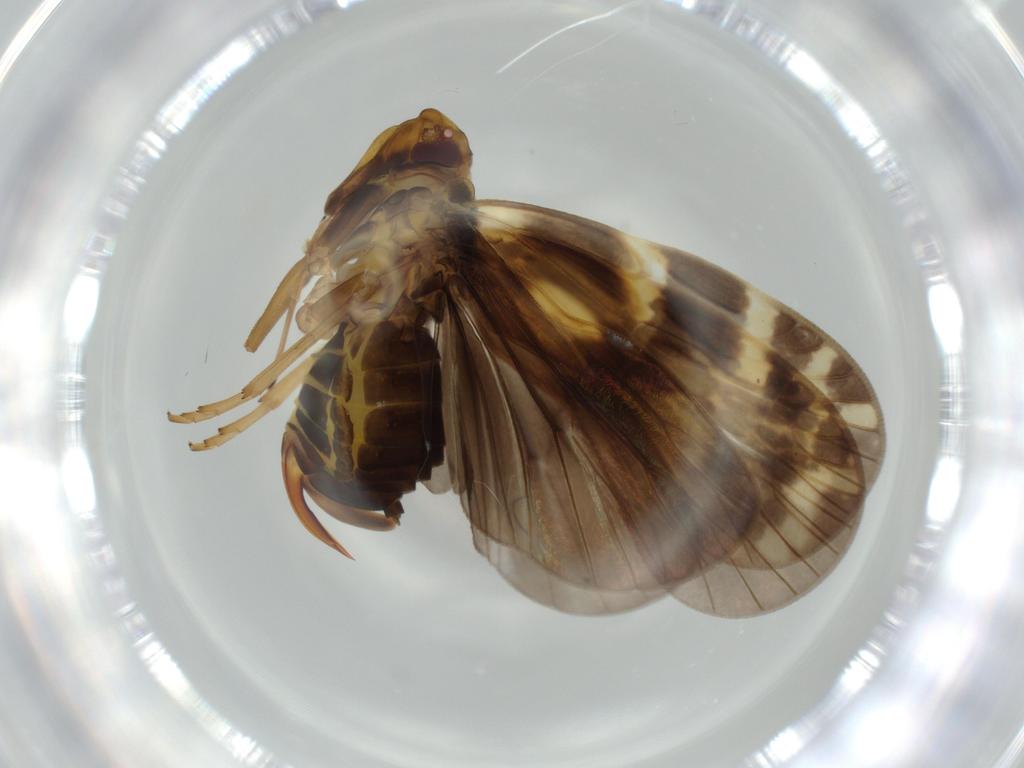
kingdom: Animalia
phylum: Arthropoda
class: Insecta
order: Hemiptera
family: Cixiidae
